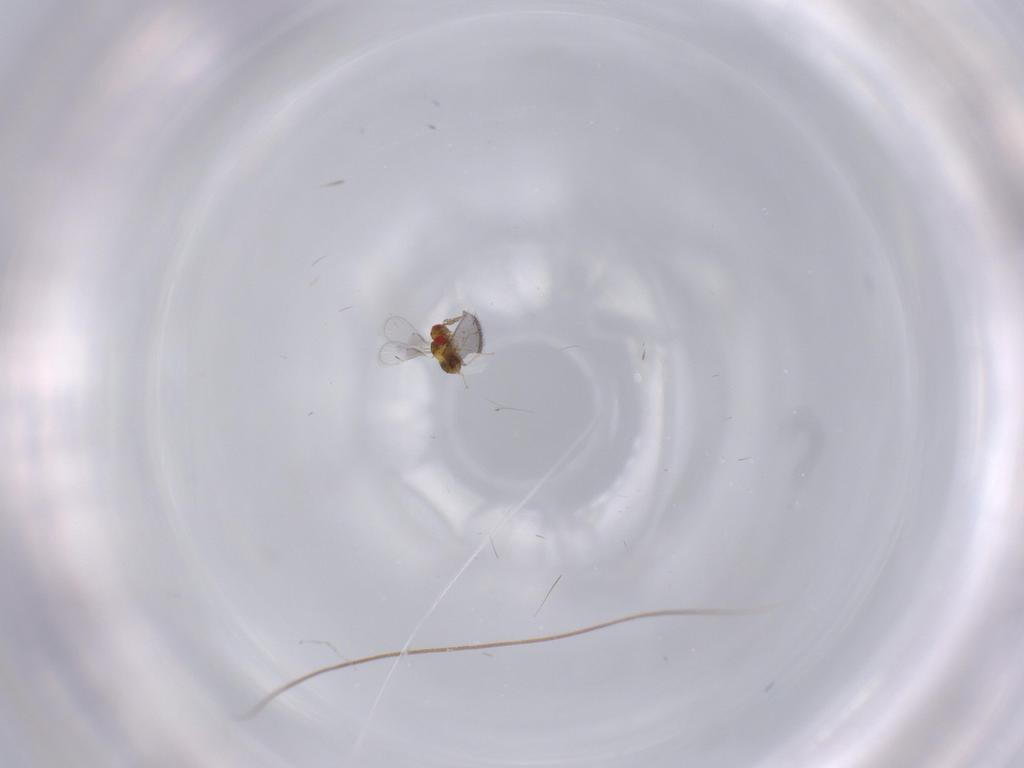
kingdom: Animalia
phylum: Arthropoda
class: Insecta
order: Hymenoptera
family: Trichogrammatidae
